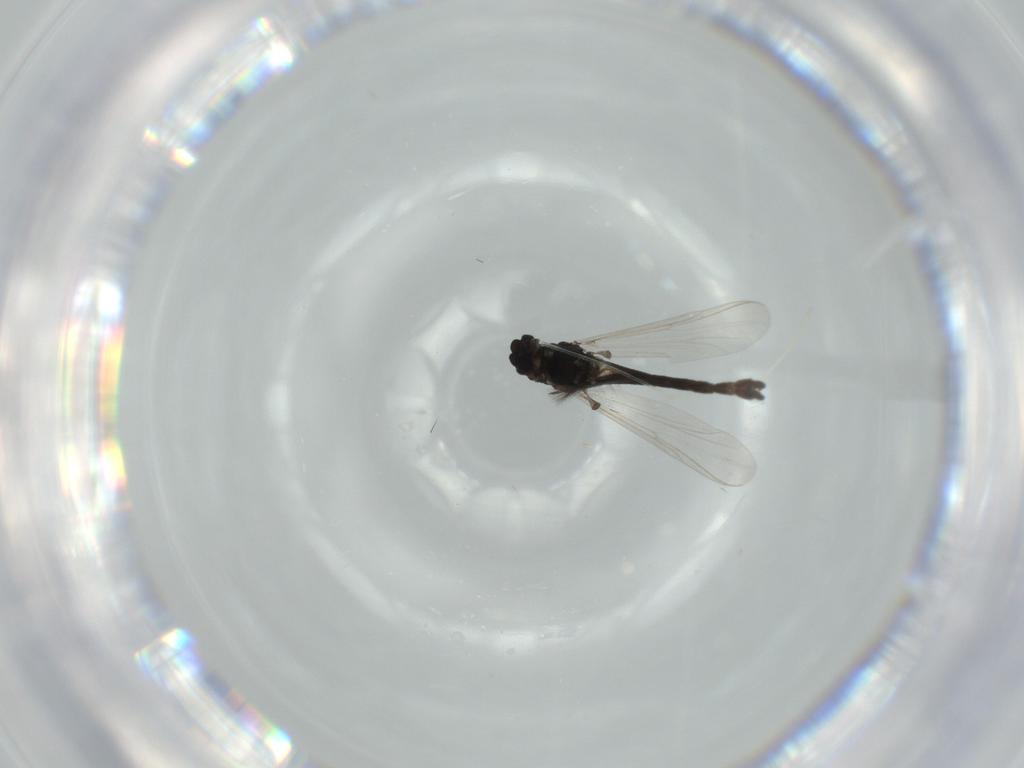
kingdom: Animalia
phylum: Arthropoda
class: Insecta
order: Diptera
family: Chironomidae
